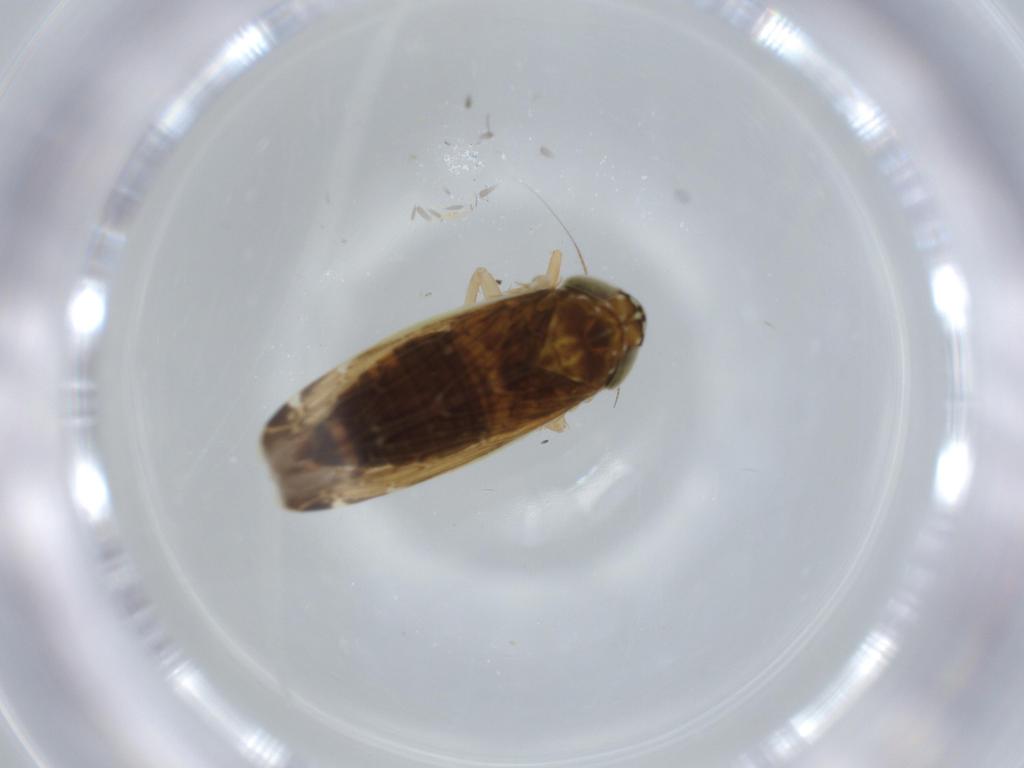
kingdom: Animalia
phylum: Arthropoda
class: Insecta
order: Hemiptera
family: Cicadellidae
